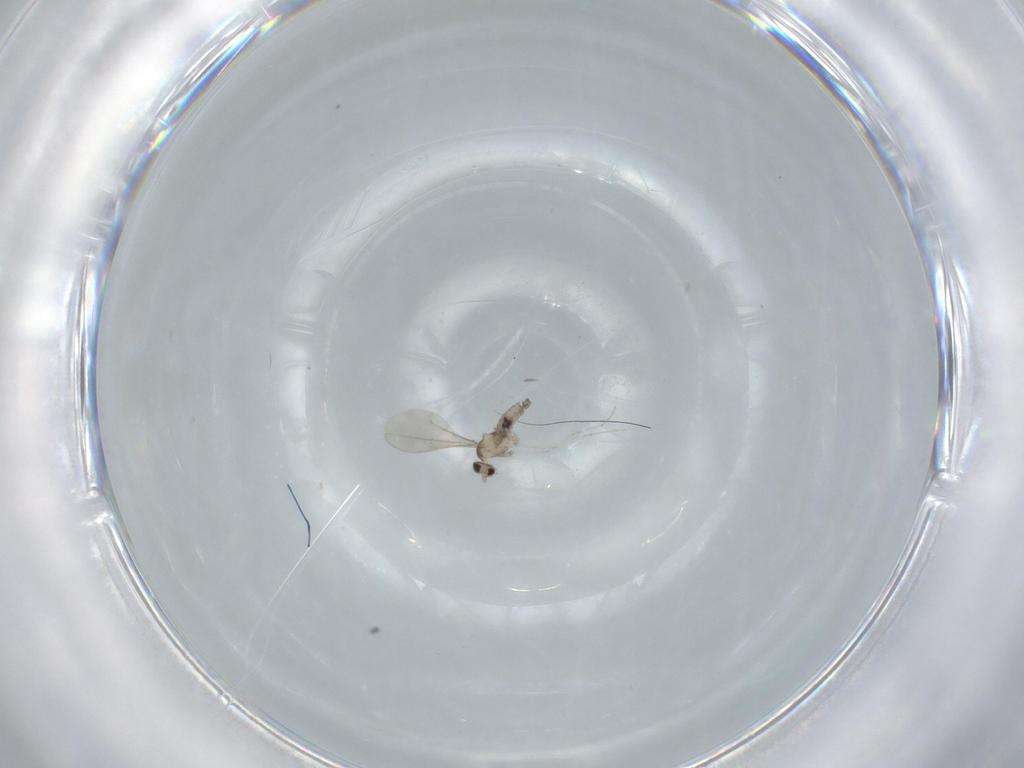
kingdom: Animalia
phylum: Arthropoda
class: Insecta
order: Diptera
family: Cecidomyiidae
